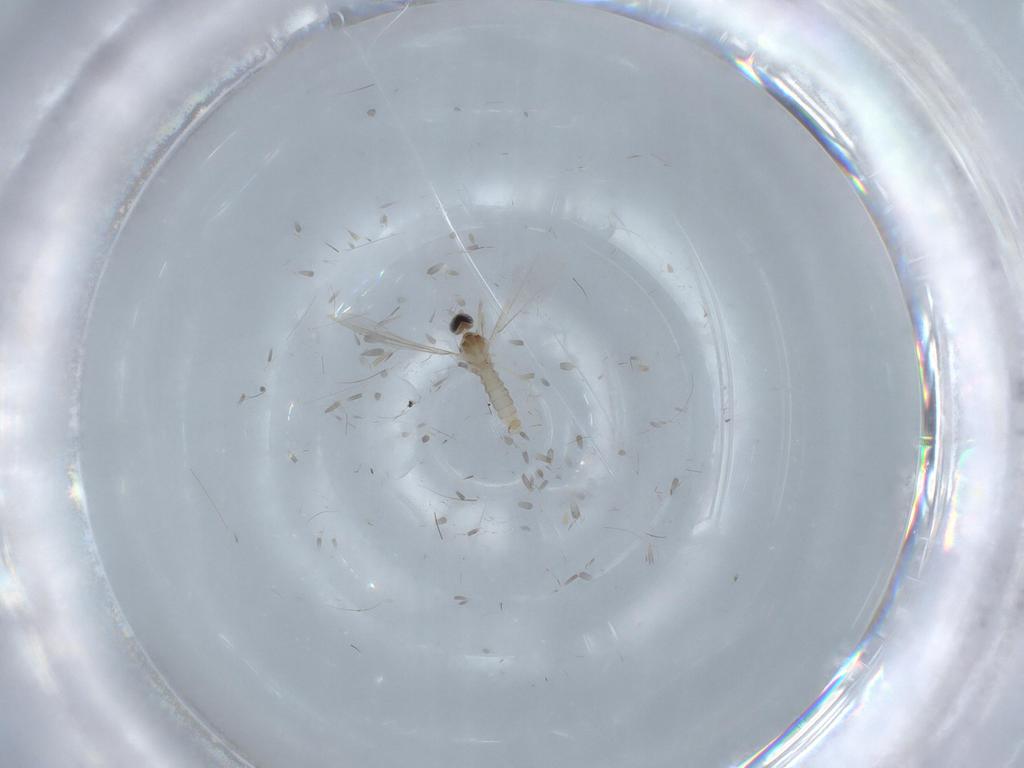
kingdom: Animalia
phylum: Arthropoda
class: Insecta
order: Diptera
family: Cecidomyiidae
